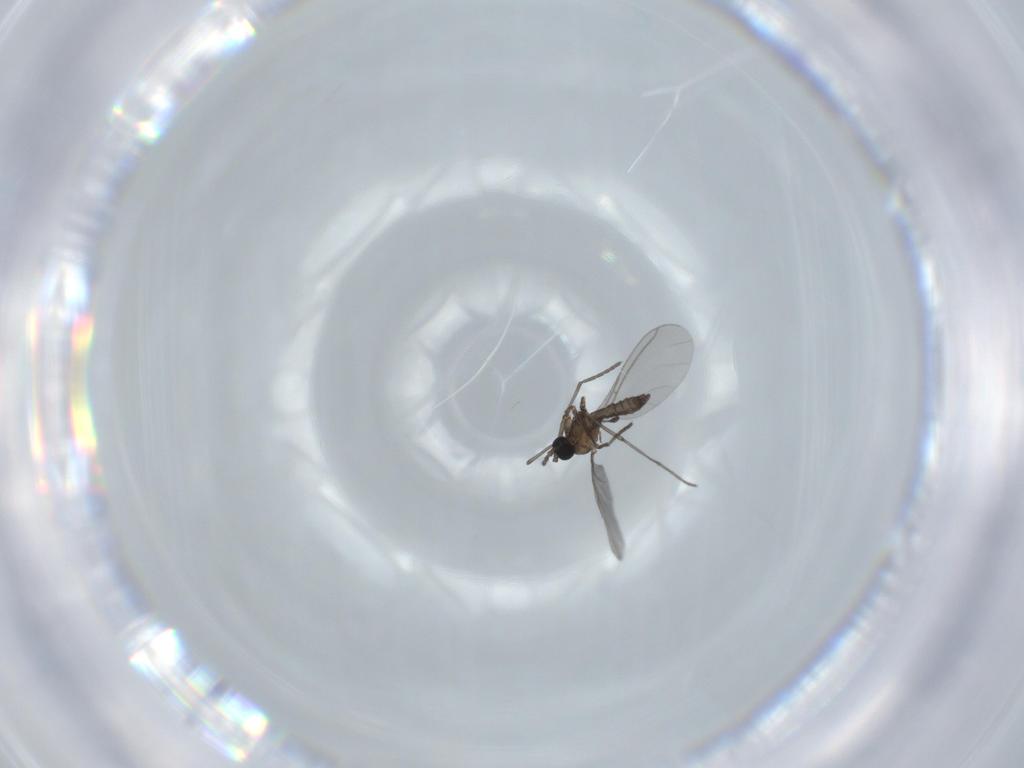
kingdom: Animalia
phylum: Arthropoda
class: Insecta
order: Diptera
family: Sciaridae
